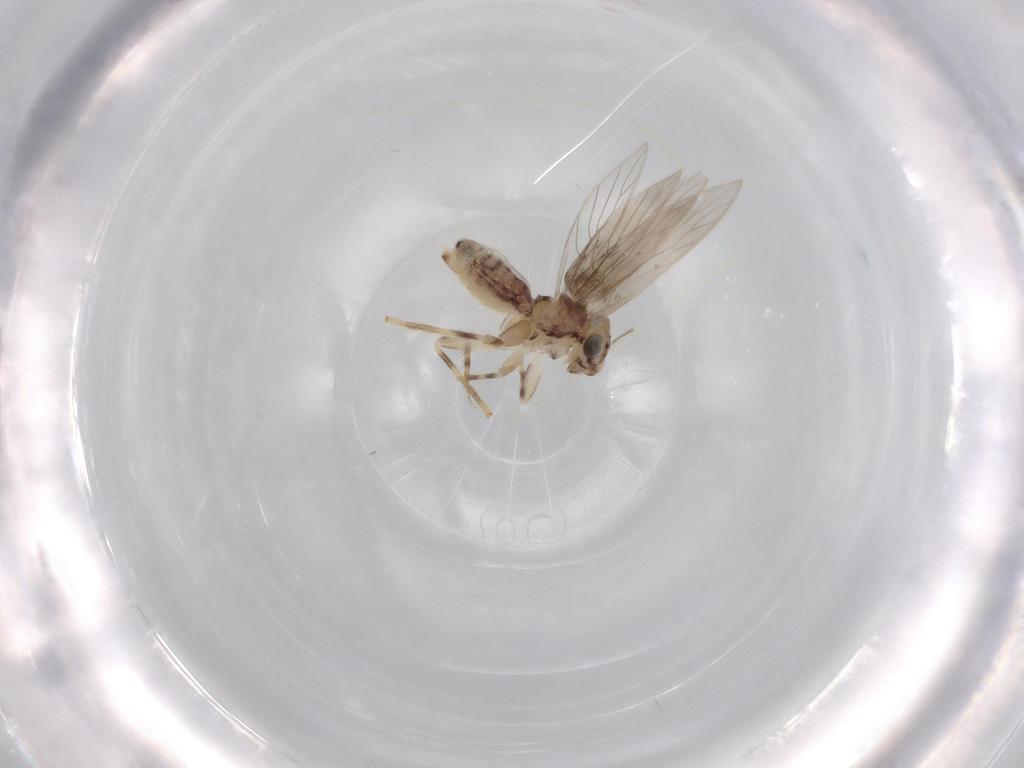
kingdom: Animalia
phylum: Arthropoda
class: Insecta
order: Psocodea
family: Lepidopsocidae
